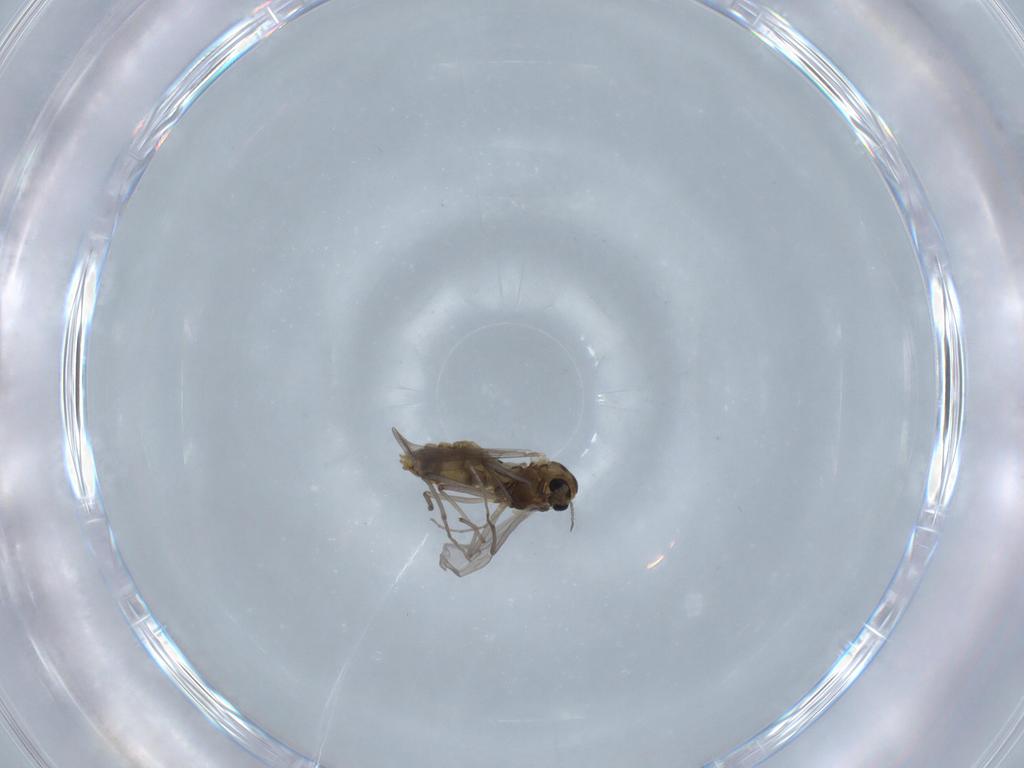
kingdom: Animalia
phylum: Arthropoda
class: Insecta
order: Diptera
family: Chironomidae
